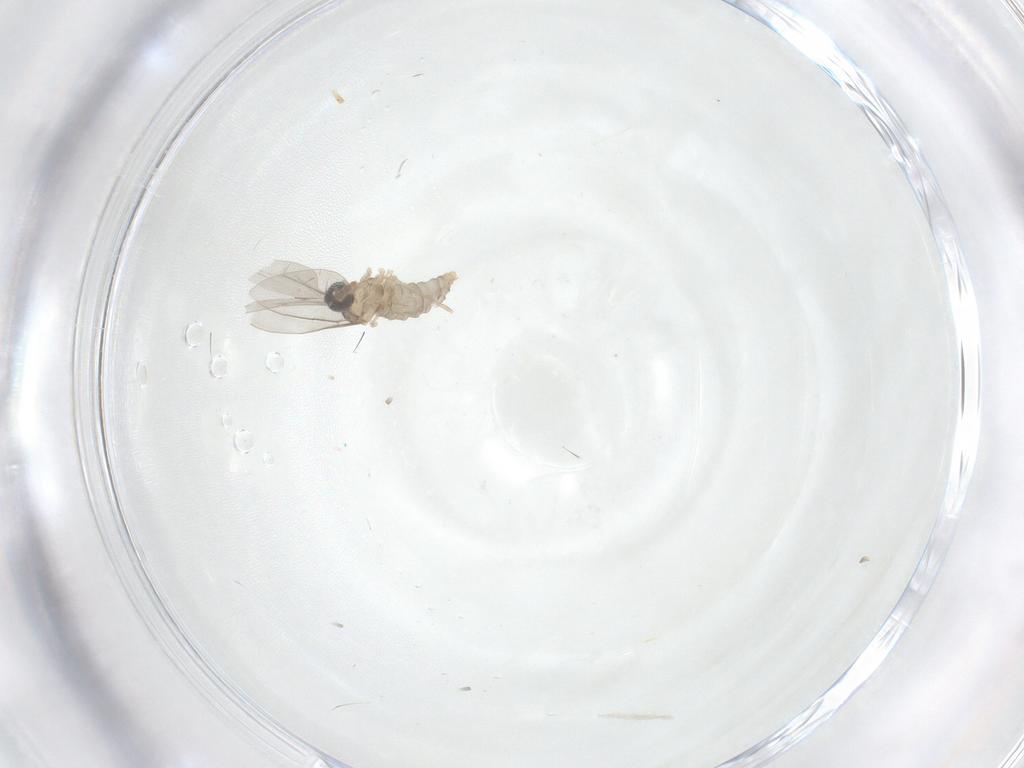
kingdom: Animalia
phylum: Arthropoda
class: Insecta
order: Diptera
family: Cecidomyiidae
